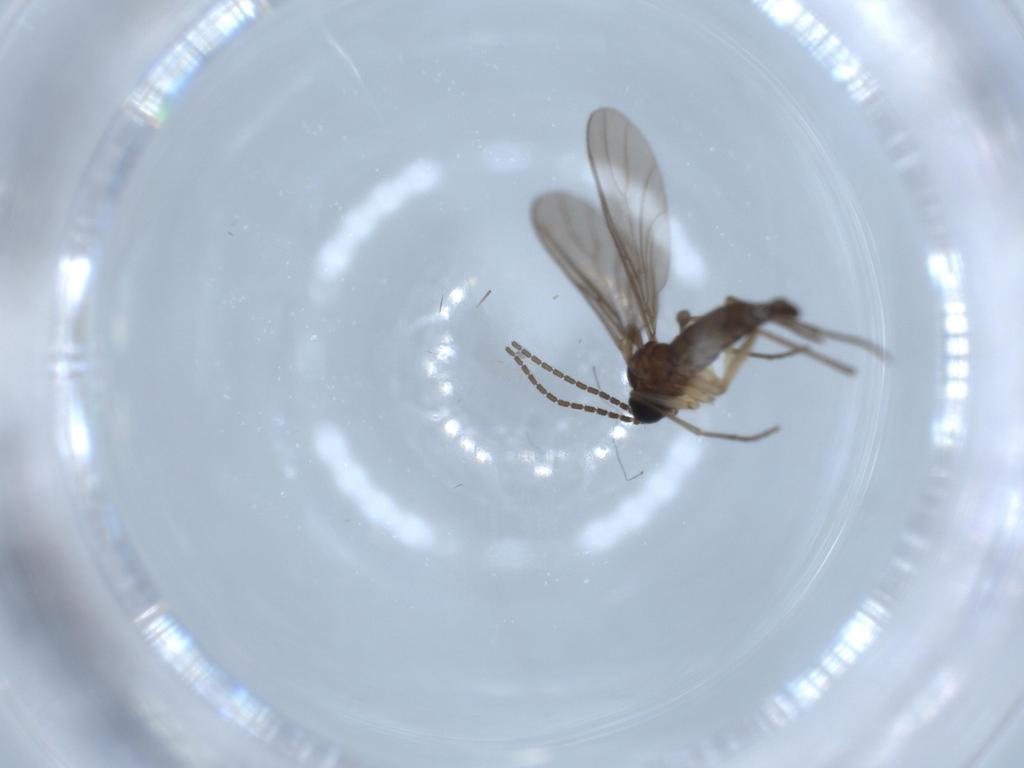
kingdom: Animalia
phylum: Arthropoda
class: Insecta
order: Diptera
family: Sciaridae
